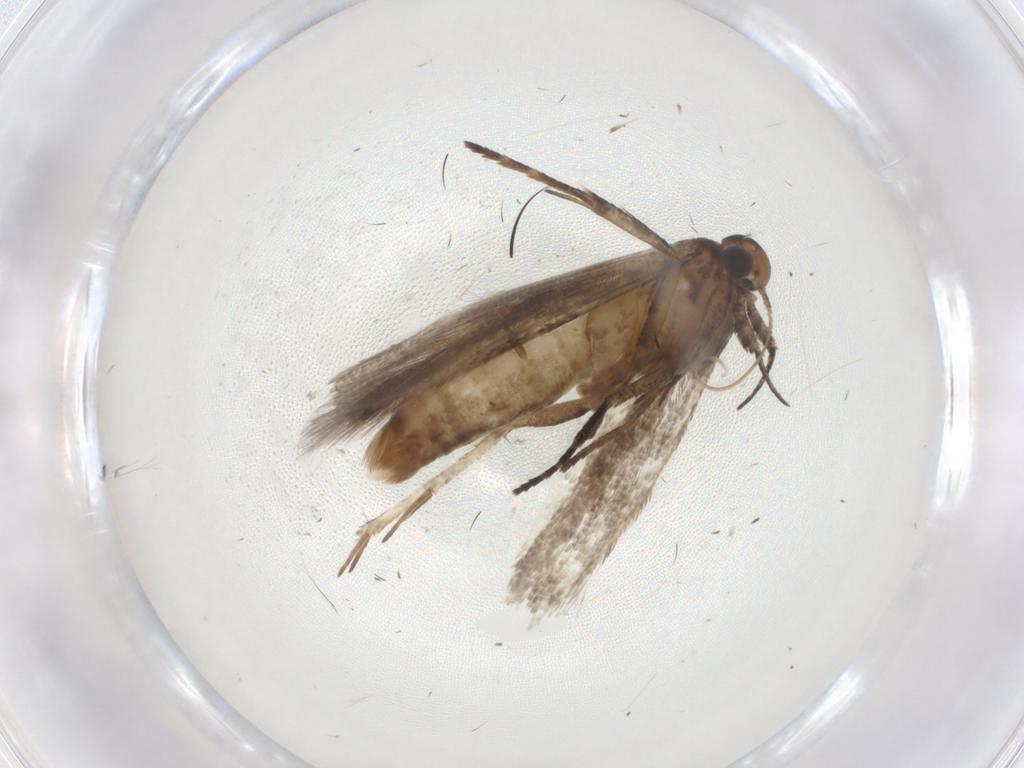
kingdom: Animalia
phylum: Arthropoda
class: Insecta
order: Lepidoptera
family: Gelechiidae
